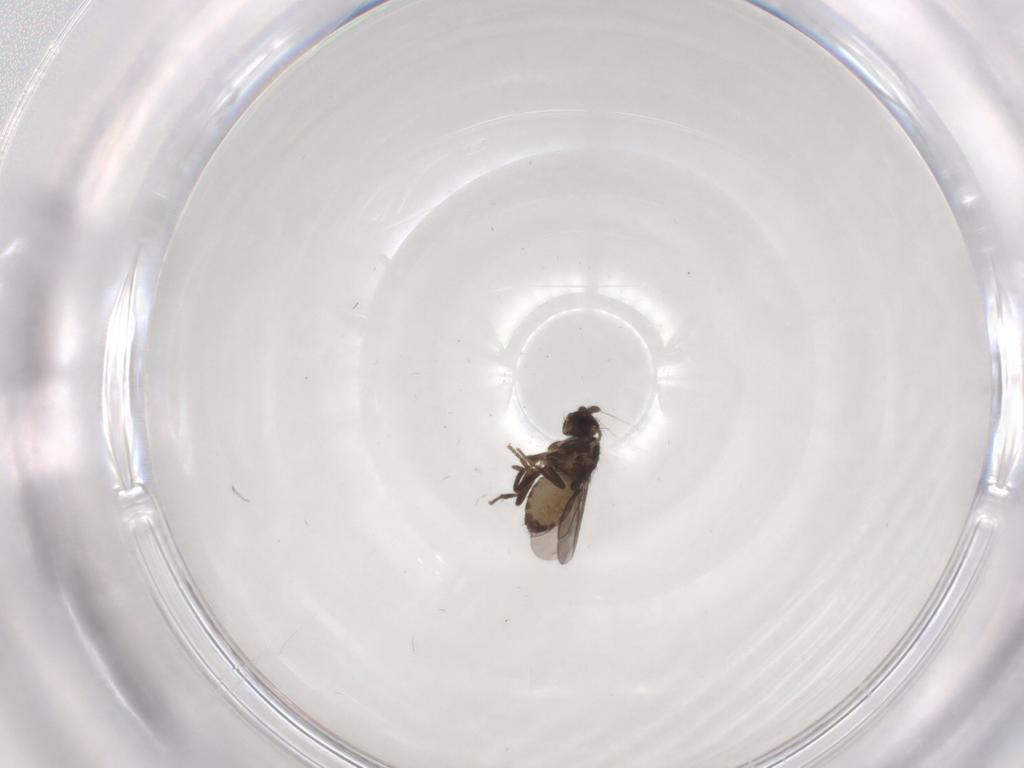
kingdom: Animalia
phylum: Arthropoda
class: Insecta
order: Diptera
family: Sphaeroceridae
